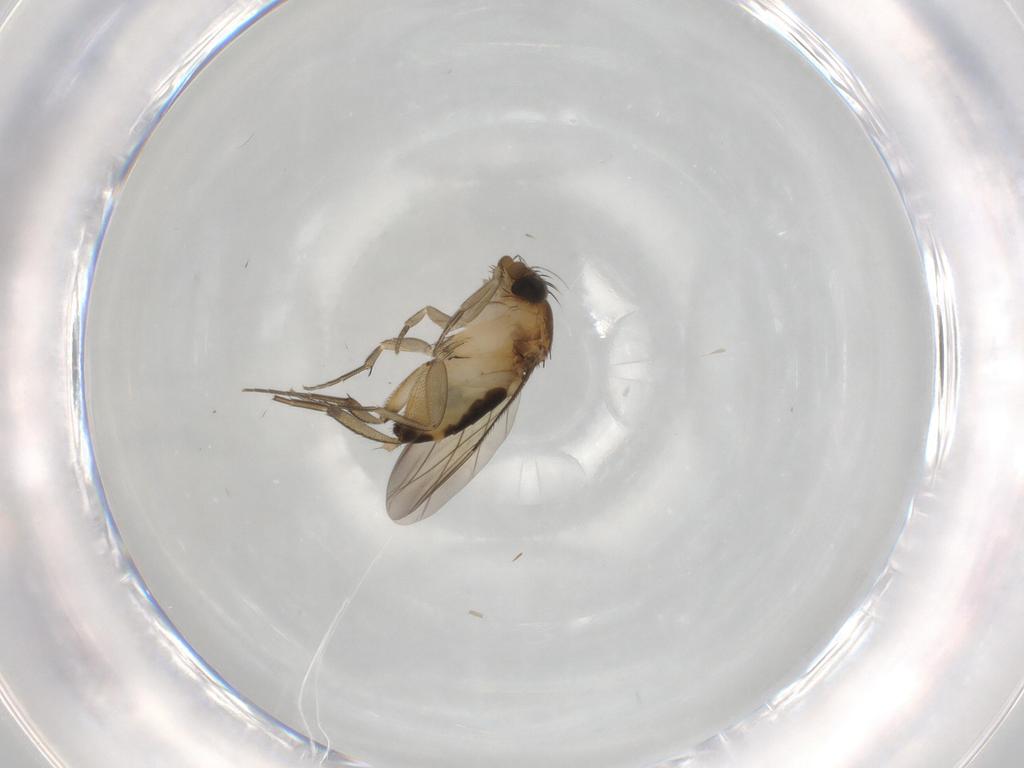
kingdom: Animalia
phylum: Arthropoda
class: Insecta
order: Diptera
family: Phoridae
